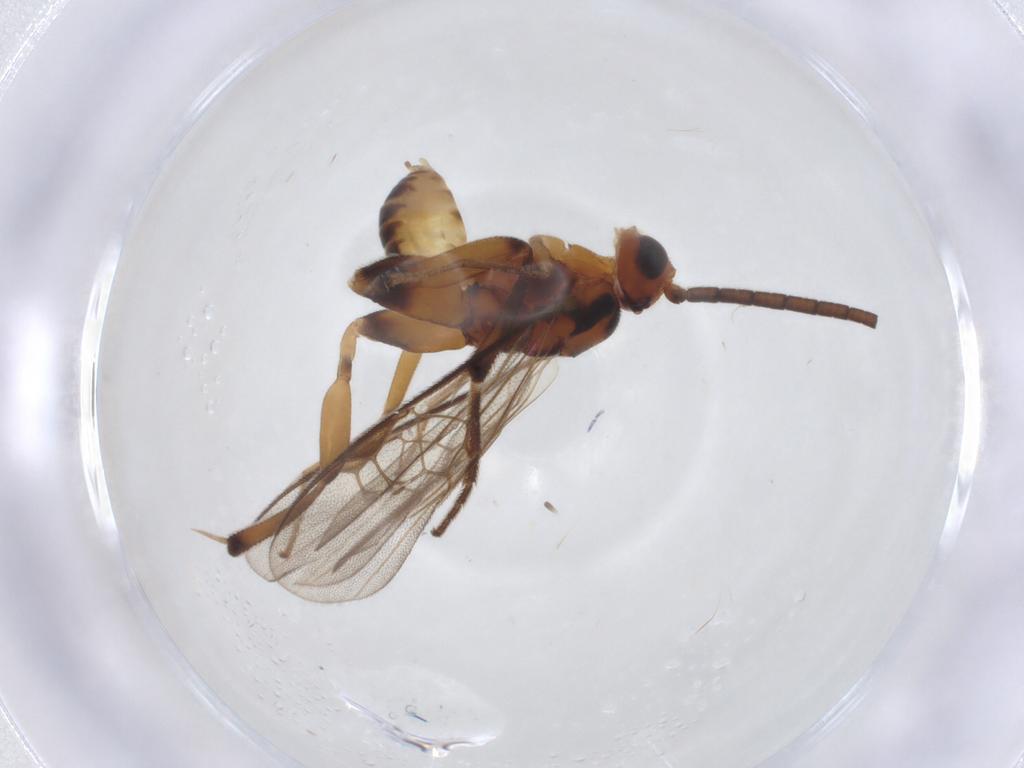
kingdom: Animalia
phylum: Arthropoda
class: Insecta
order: Hymenoptera
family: Braconidae
